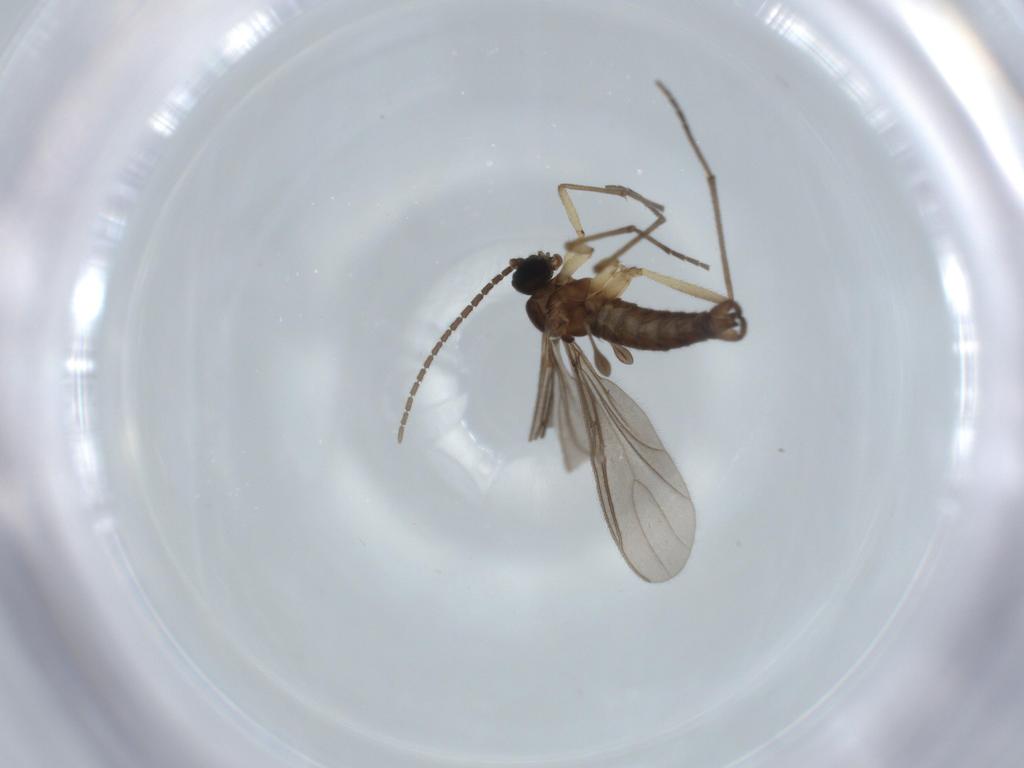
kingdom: Animalia
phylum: Arthropoda
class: Insecta
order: Diptera
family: Sciaridae
